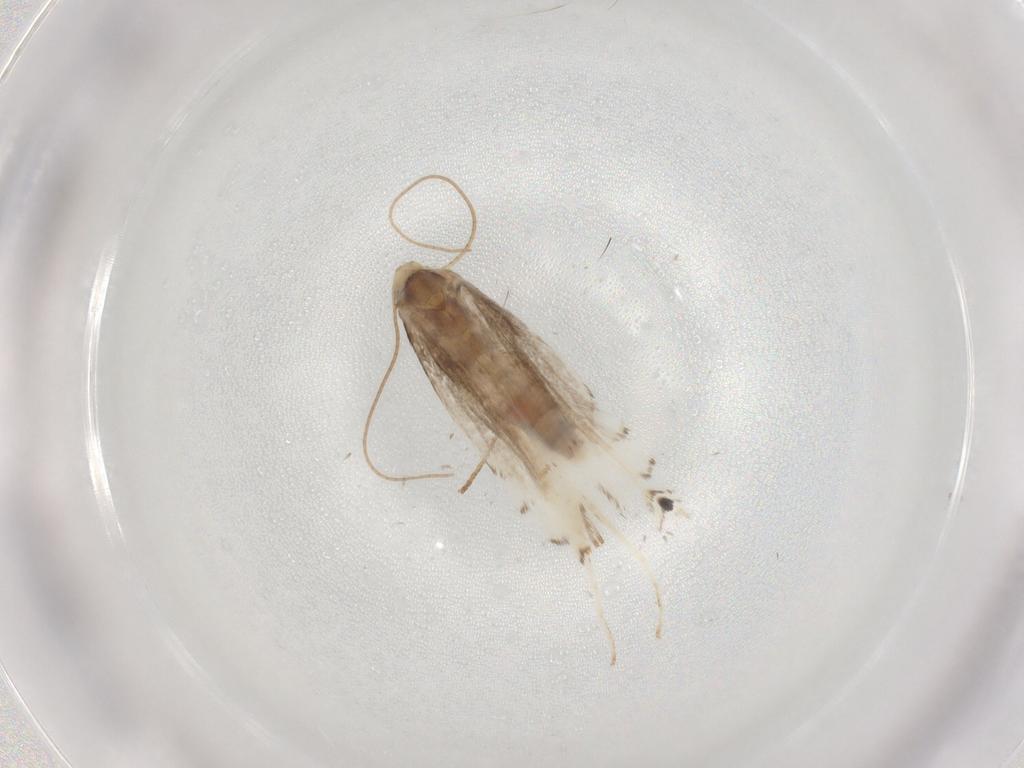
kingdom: Animalia
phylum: Arthropoda
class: Insecta
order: Lepidoptera
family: Gracillariidae
